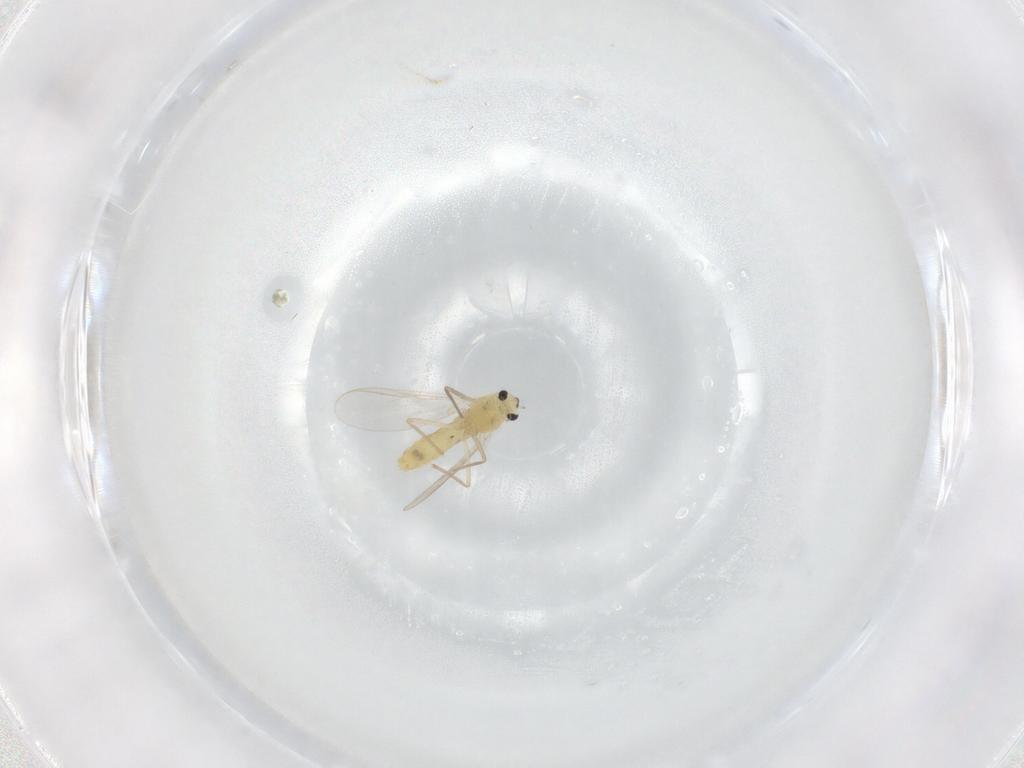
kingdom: Animalia
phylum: Arthropoda
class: Insecta
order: Diptera
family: Chironomidae
